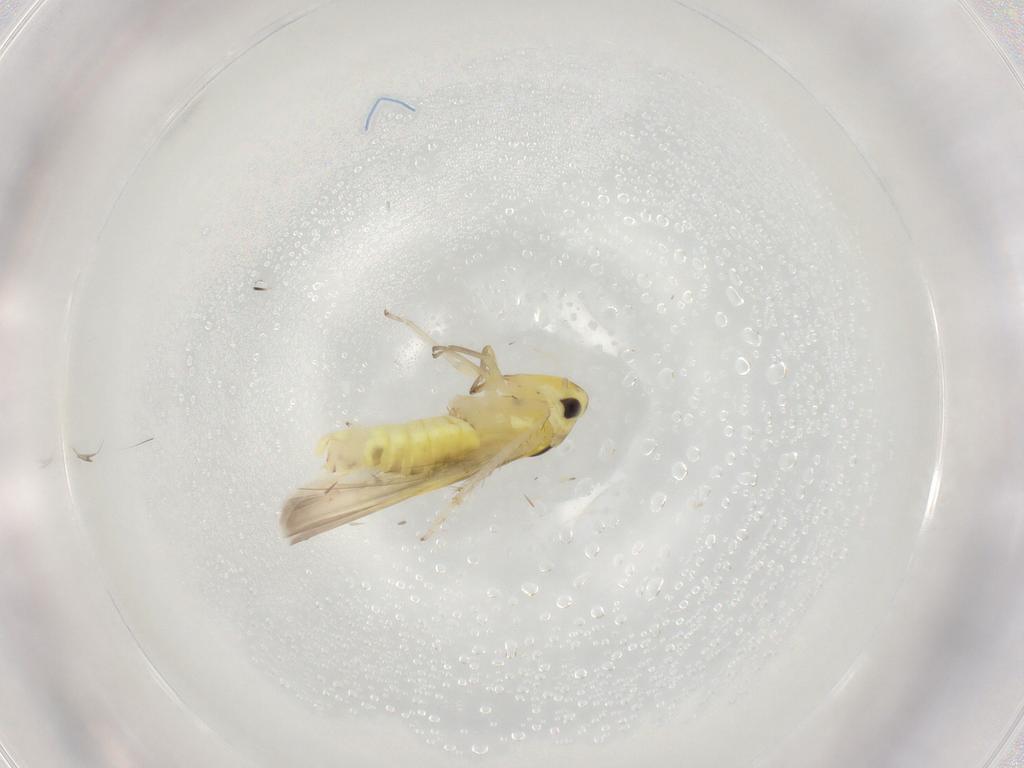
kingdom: Animalia
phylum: Arthropoda
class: Insecta
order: Hemiptera
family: Cicadellidae
